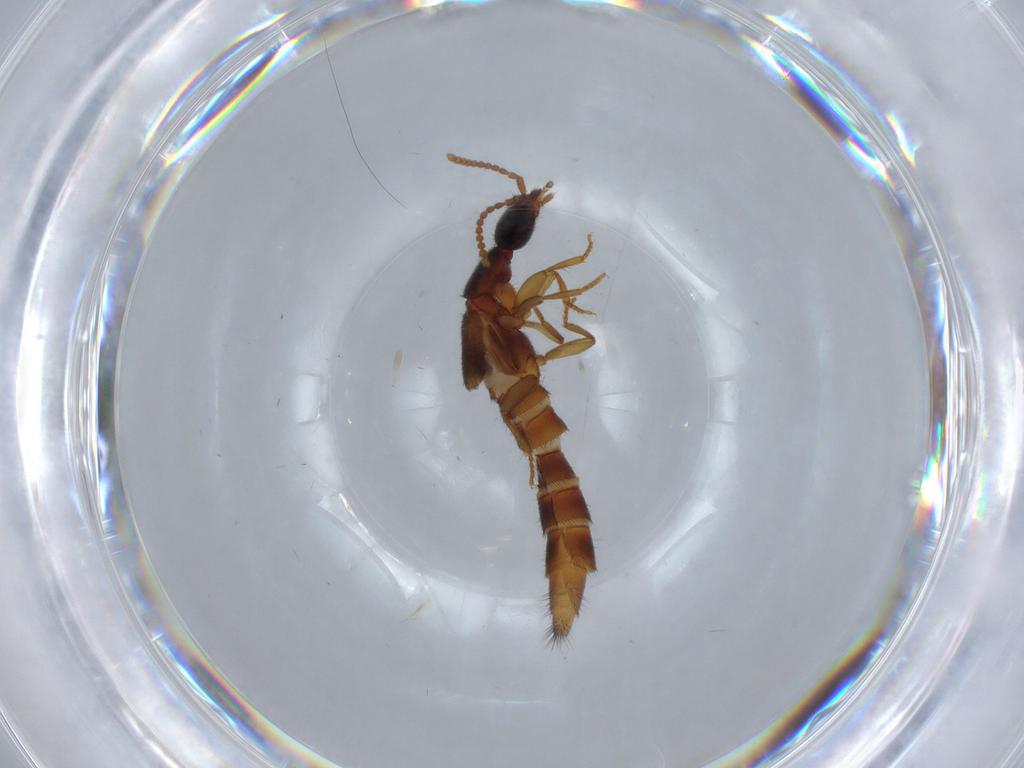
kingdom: Animalia
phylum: Arthropoda
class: Insecta
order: Coleoptera
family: Staphylinidae
